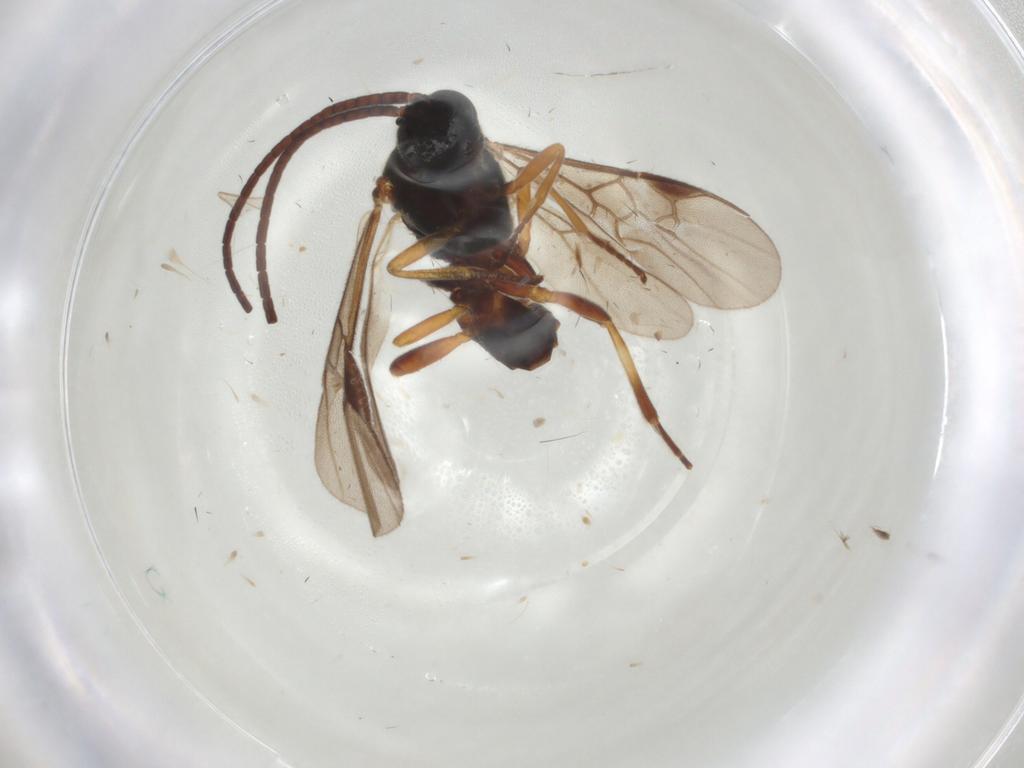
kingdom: Animalia
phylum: Arthropoda
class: Insecta
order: Hymenoptera
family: Braconidae
